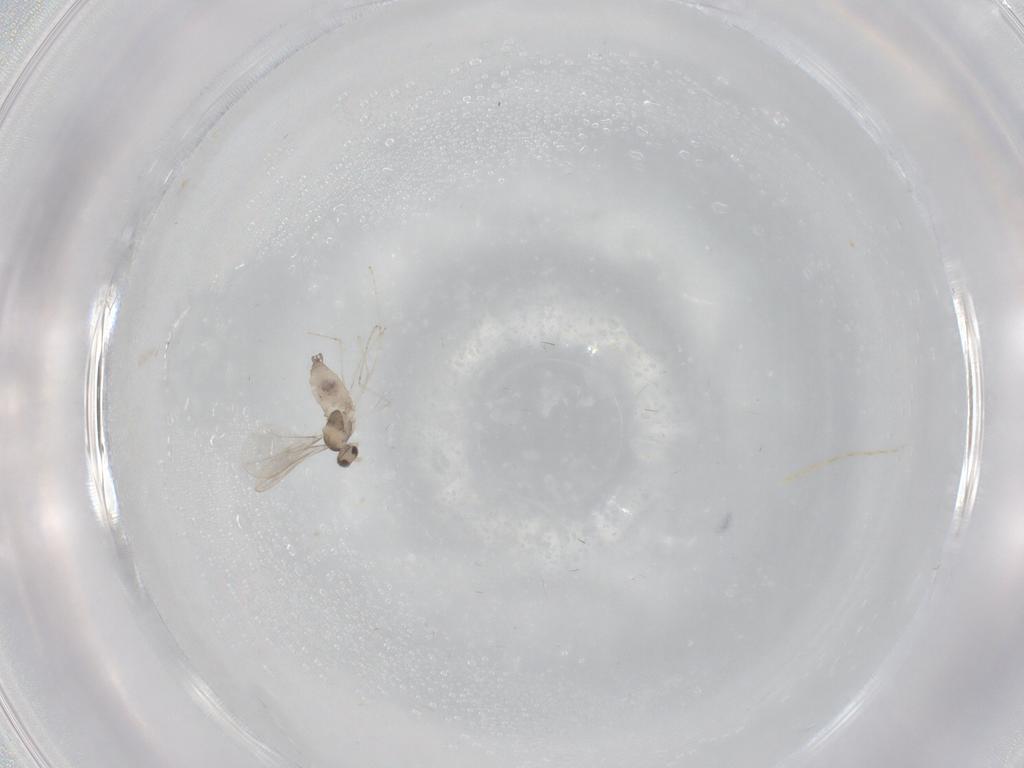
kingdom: Animalia
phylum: Arthropoda
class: Insecta
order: Diptera
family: Cecidomyiidae
